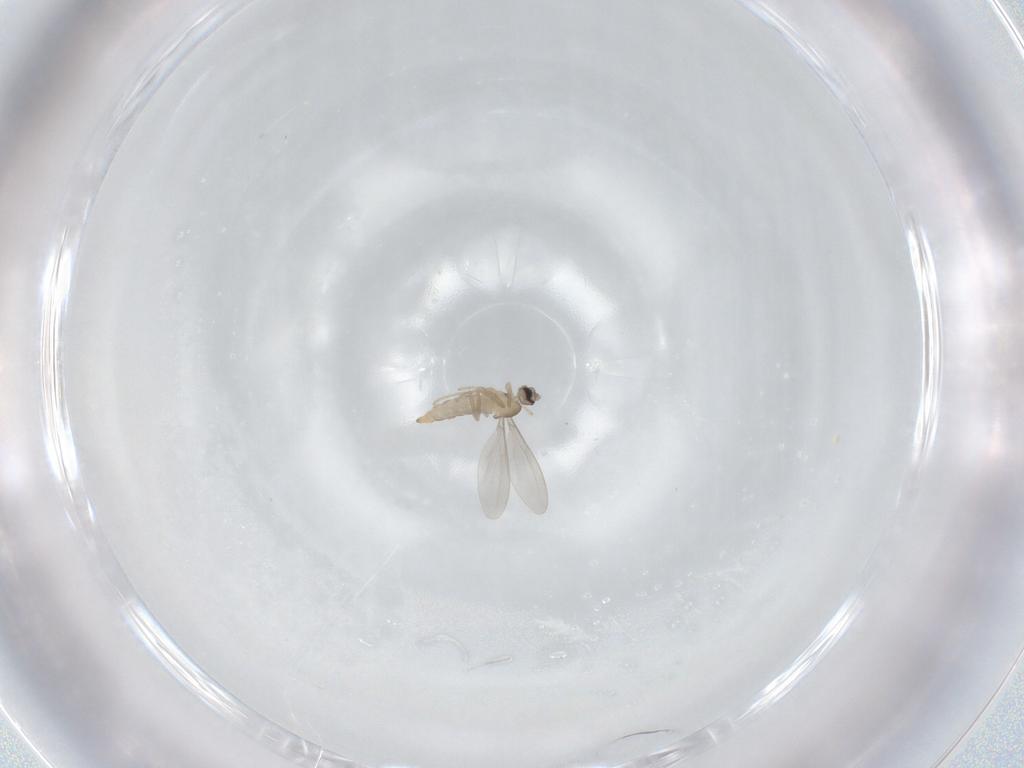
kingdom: Animalia
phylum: Arthropoda
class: Insecta
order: Diptera
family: Cecidomyiidae
